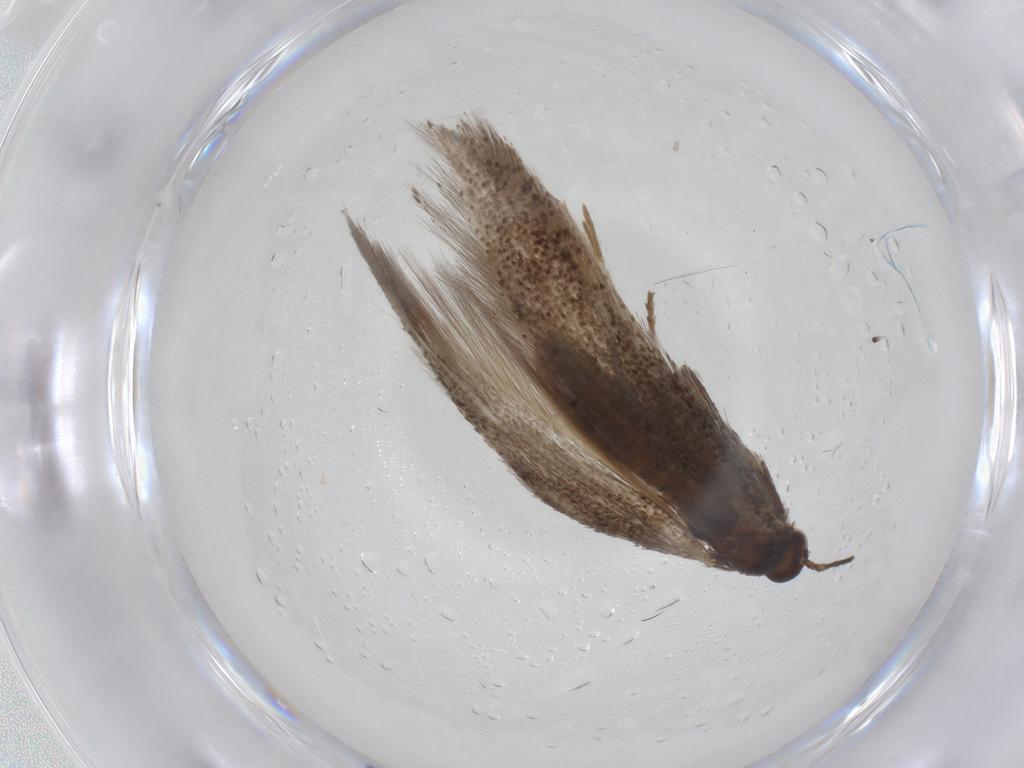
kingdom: Animalia
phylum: Arthropoda
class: Insecta
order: Lepidoptera
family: Douglasiidae
